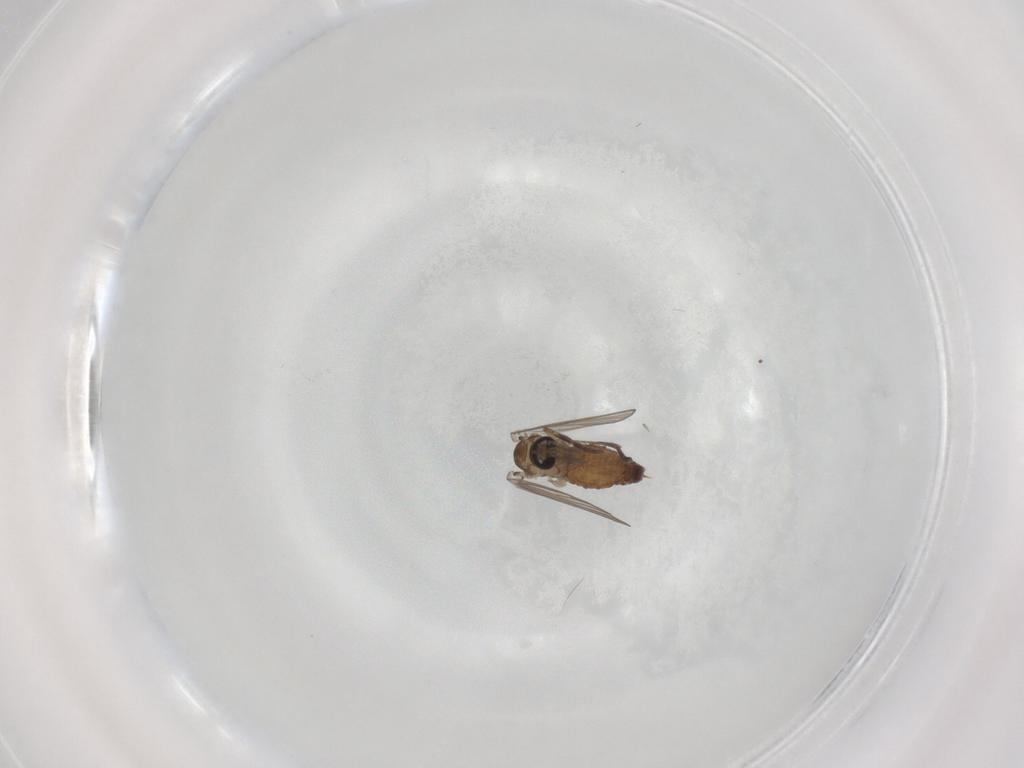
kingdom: Animalia
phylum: Arthropoda
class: Insecta
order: Diptera
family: Psychodidae
